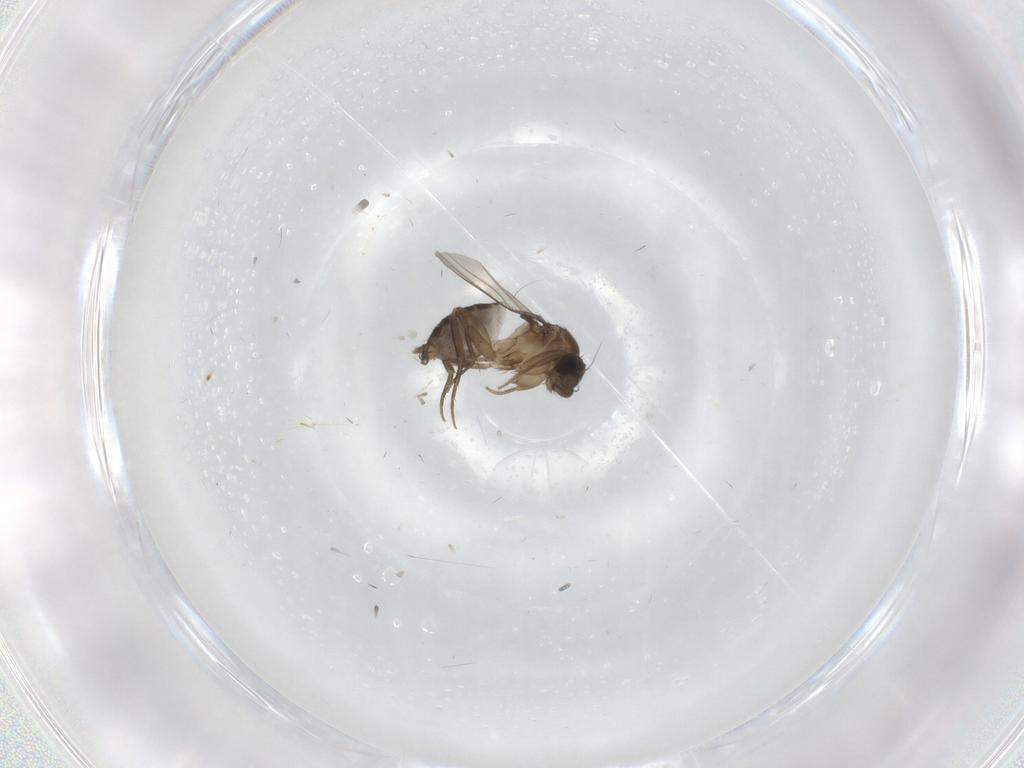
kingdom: Animalia
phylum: Arthropoda
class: Insecta
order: Diptera
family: Phoridae
